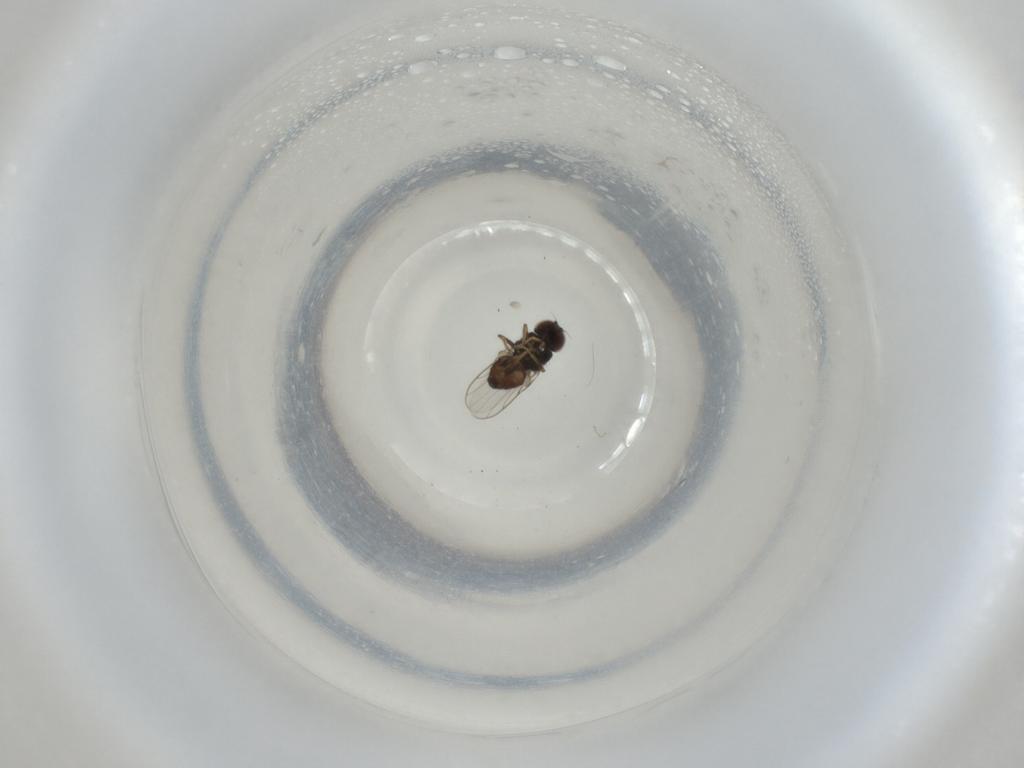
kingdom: Animalia
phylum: Arthropoda
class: Insecta
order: Diptera
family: Chloropidae
